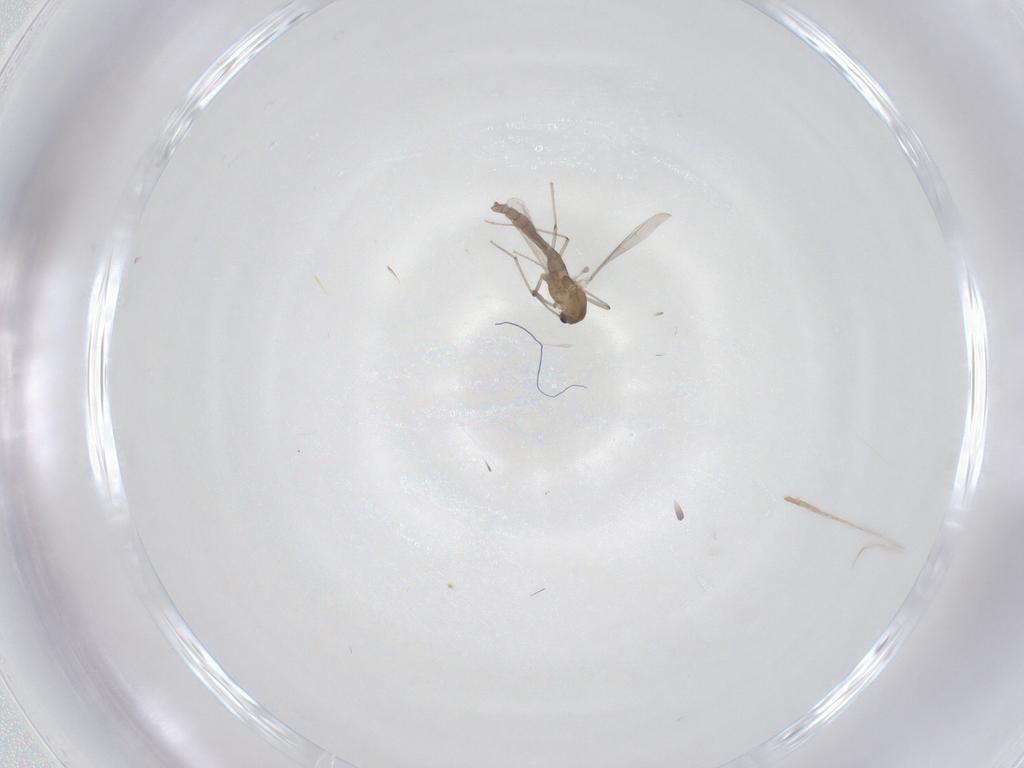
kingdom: Animalia
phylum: Arthropoda
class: Insecta
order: Diptera
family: Chironomidae
